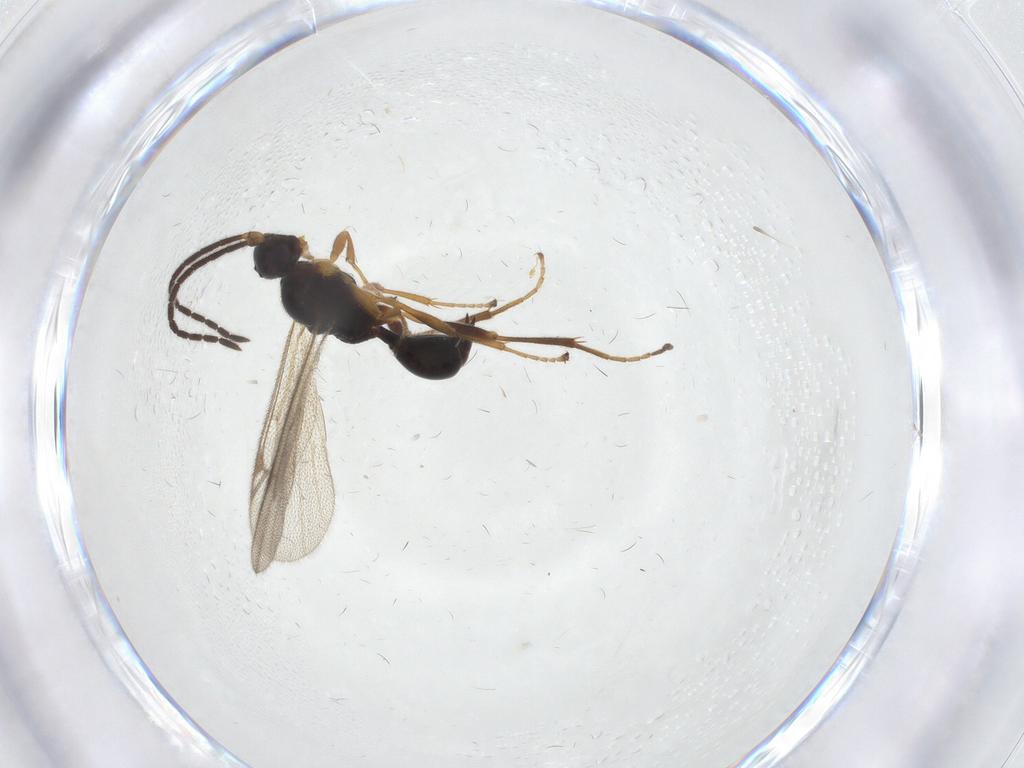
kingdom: Animalia
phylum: Arthropoda
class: Insecta
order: Hymenoptera
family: Proctotrupidae
